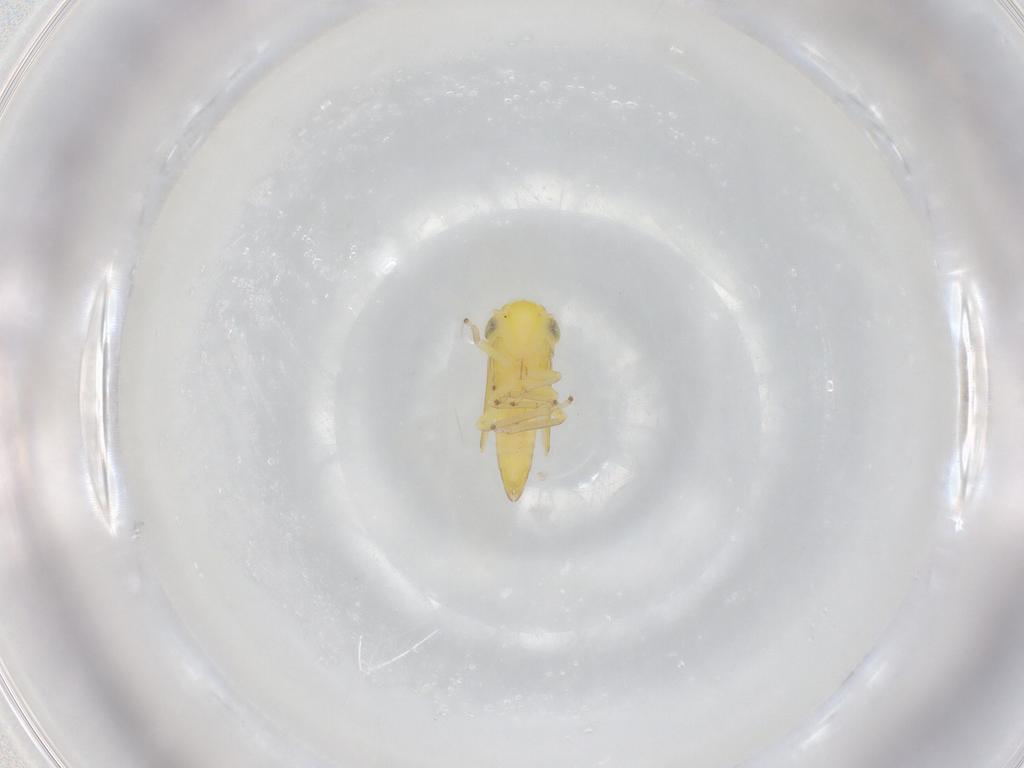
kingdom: Animalia
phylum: Arthropoda
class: Insecta
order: Hemiptera
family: Cicadellidae
